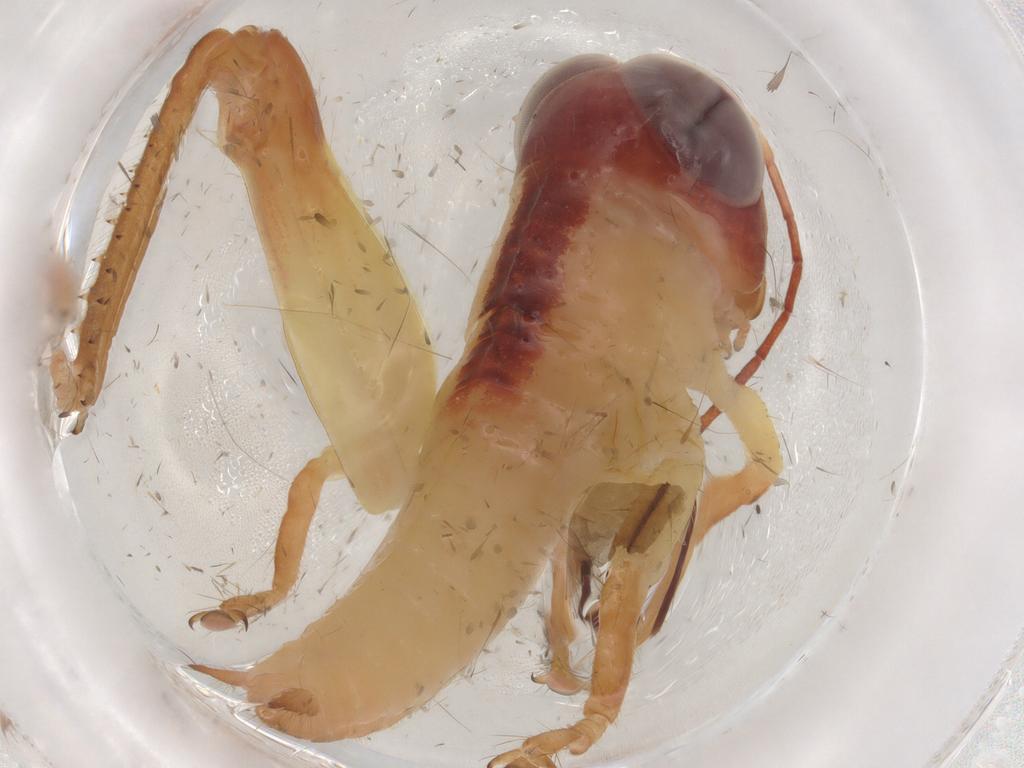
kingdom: Animalia
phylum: Arthropoda
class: Insecta
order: Orthoptera
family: Acrididae
